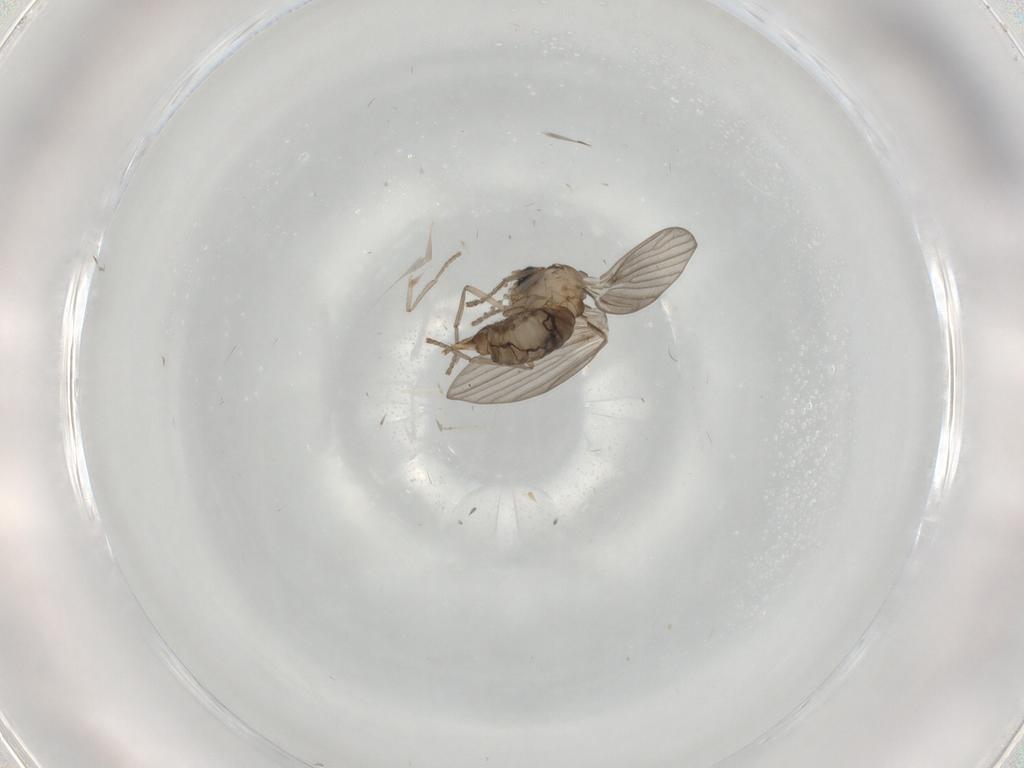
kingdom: Animalia
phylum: Arthropoda
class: Insecta
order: Diptera
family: Psychodidae
